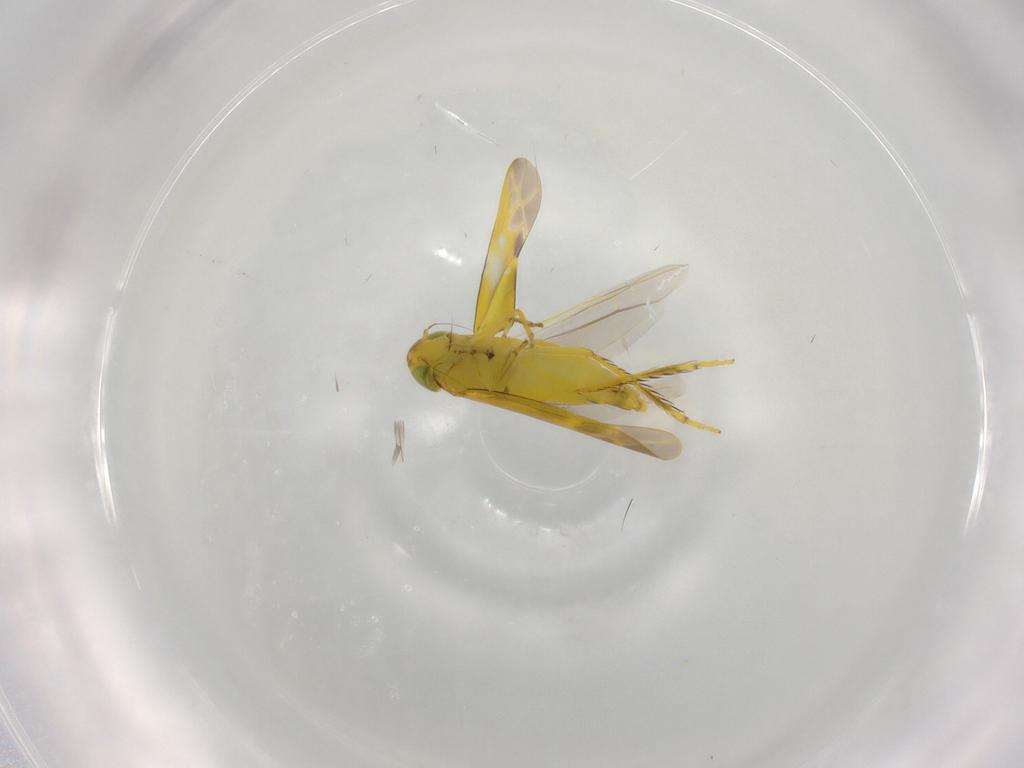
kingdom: Animalia
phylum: Arthropoda
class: Insecta
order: Hemiptera
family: Cicadellidae
